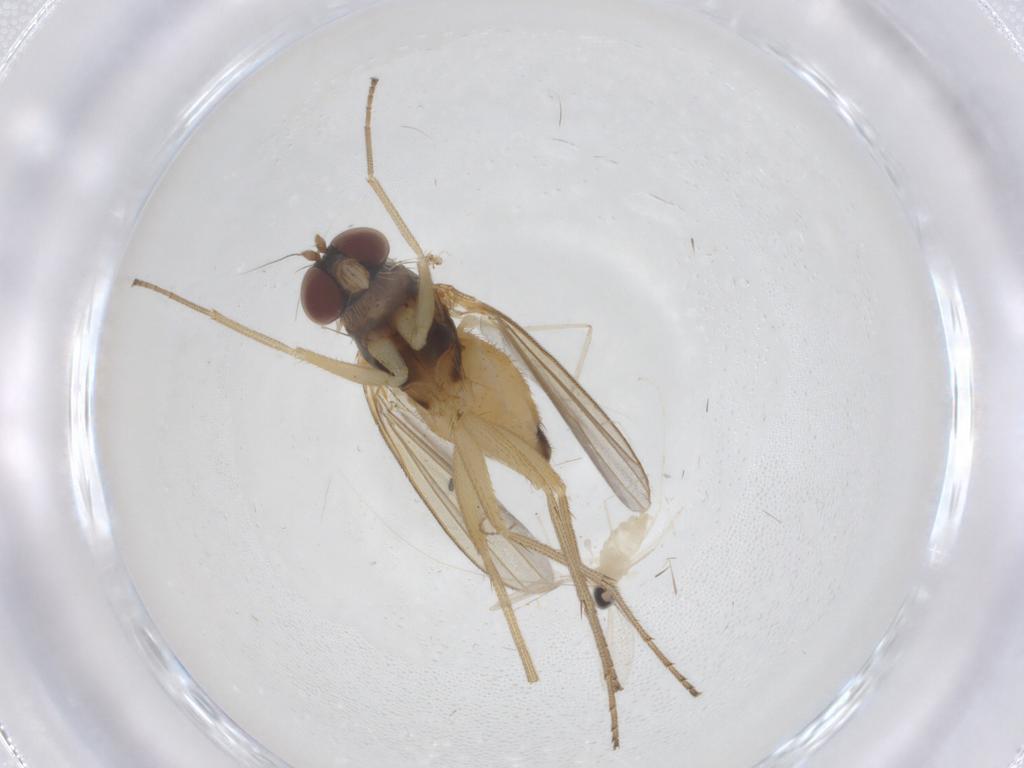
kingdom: Animalia
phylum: Arthropoda
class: Insecta
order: Diptera
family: Dolichopodidae
